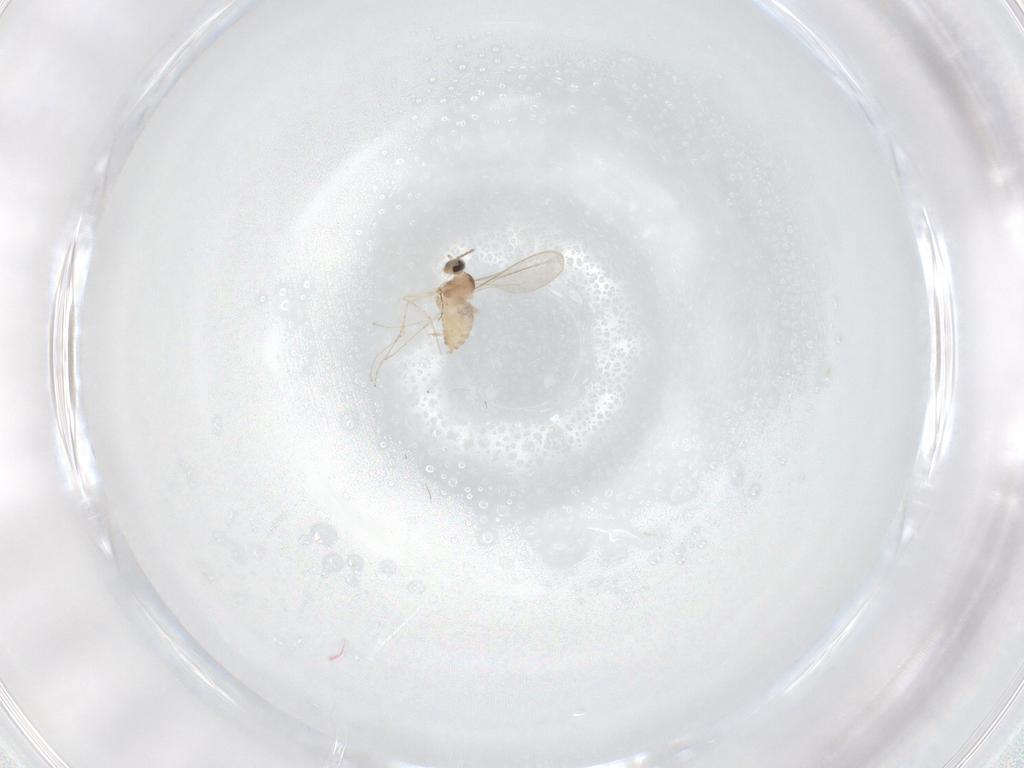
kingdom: Animalia
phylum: Arthropoda
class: Insecta
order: Diptera
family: Cecidomyiidae
